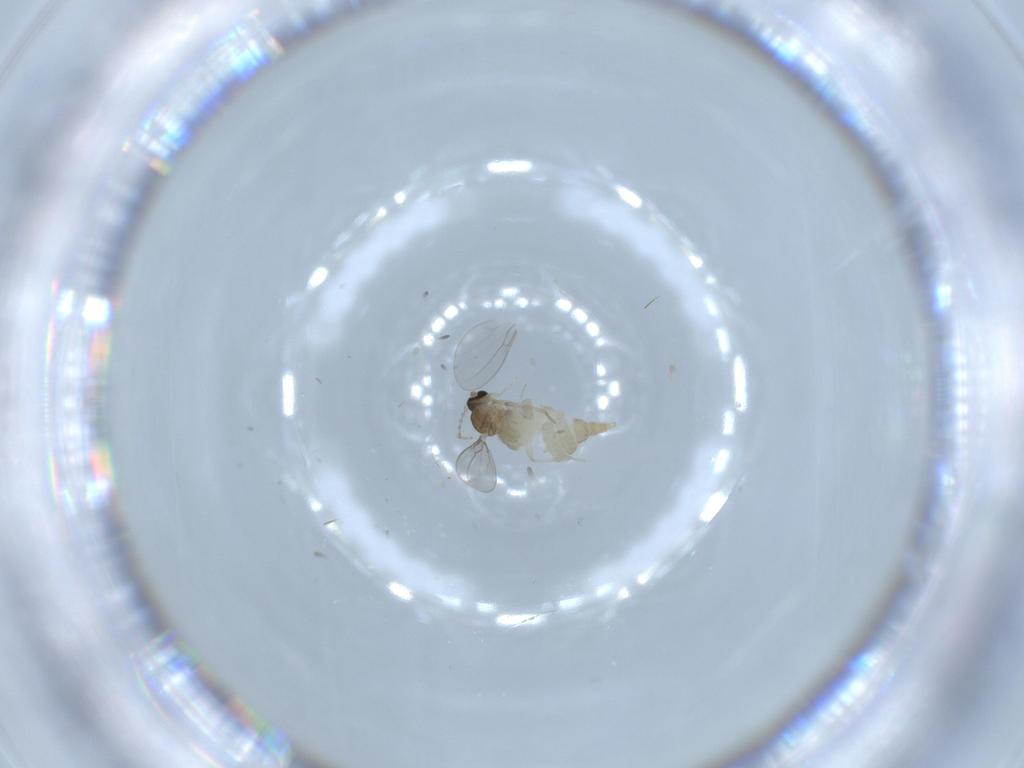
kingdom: Animalia
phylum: Arthropoda
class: Insecta
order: Diptera
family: Cecidomyiidae
